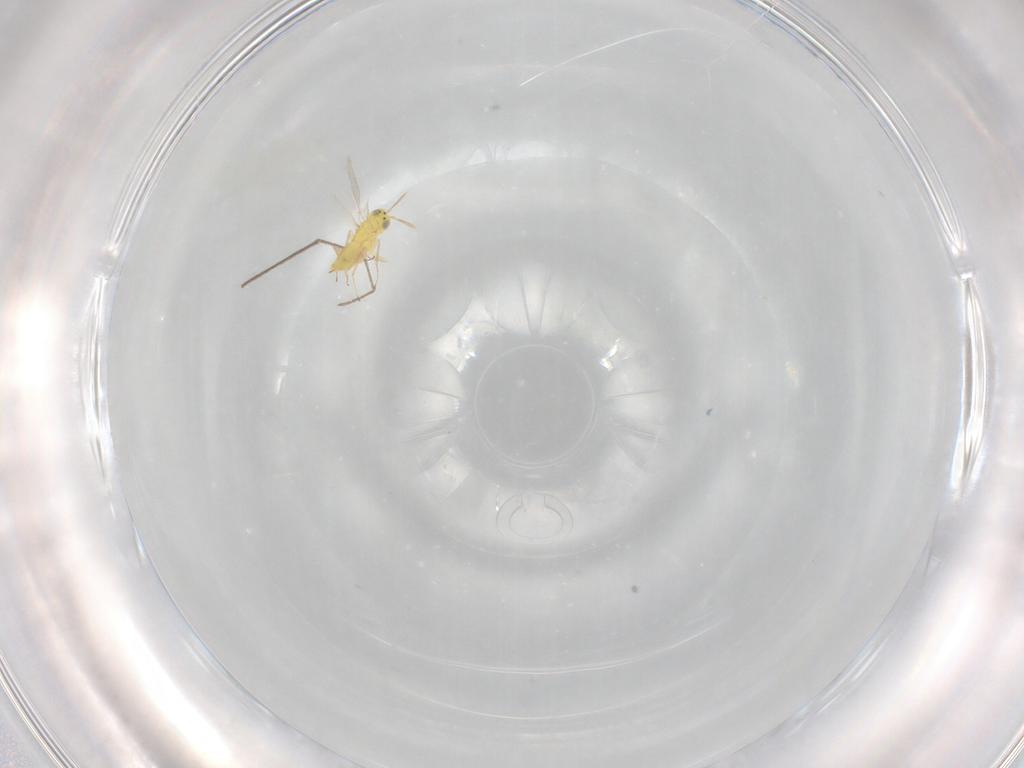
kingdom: Animalia
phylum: Arthropoda
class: Insecta
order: Hymenoptera
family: Aphelinidae
